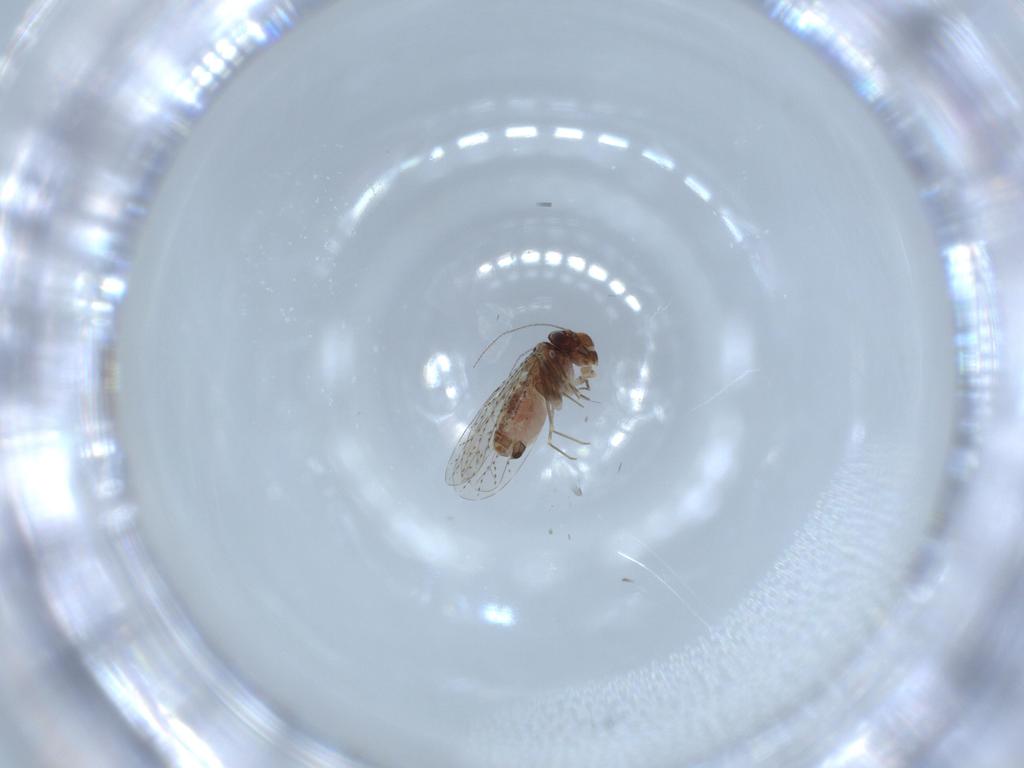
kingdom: Animalia
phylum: Arthropoda
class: Insecta
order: Psocodea
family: Musapsocidae
